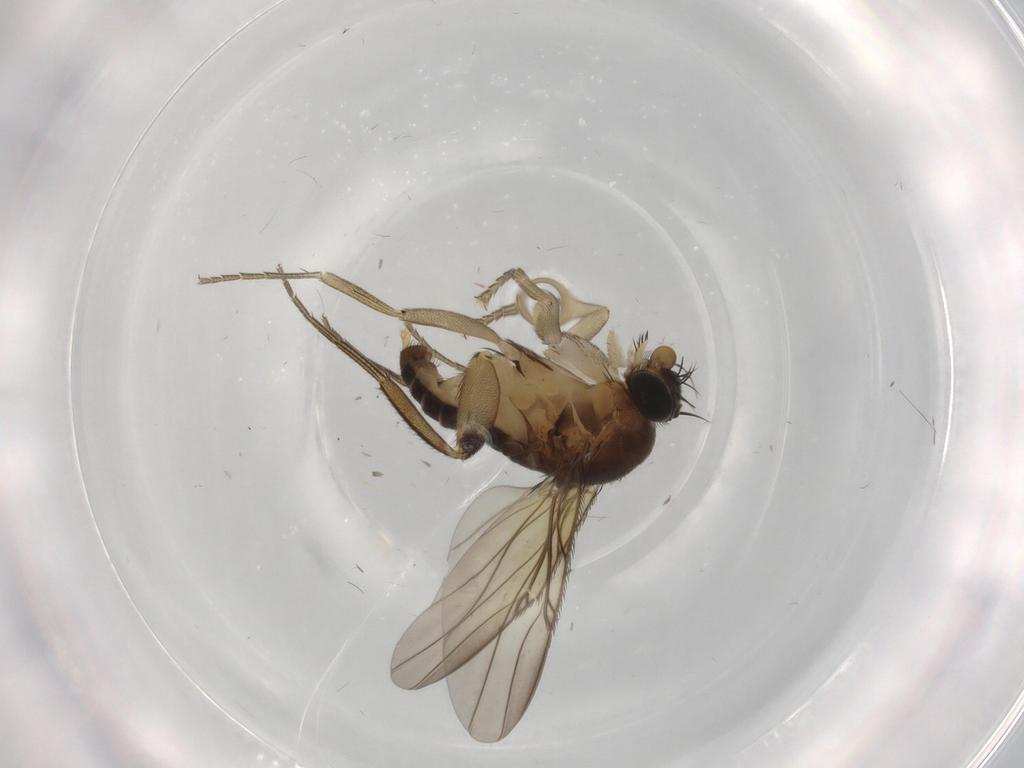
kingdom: Animalia
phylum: Arthropoda
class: Insecta
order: Diptera
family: Phoridae
